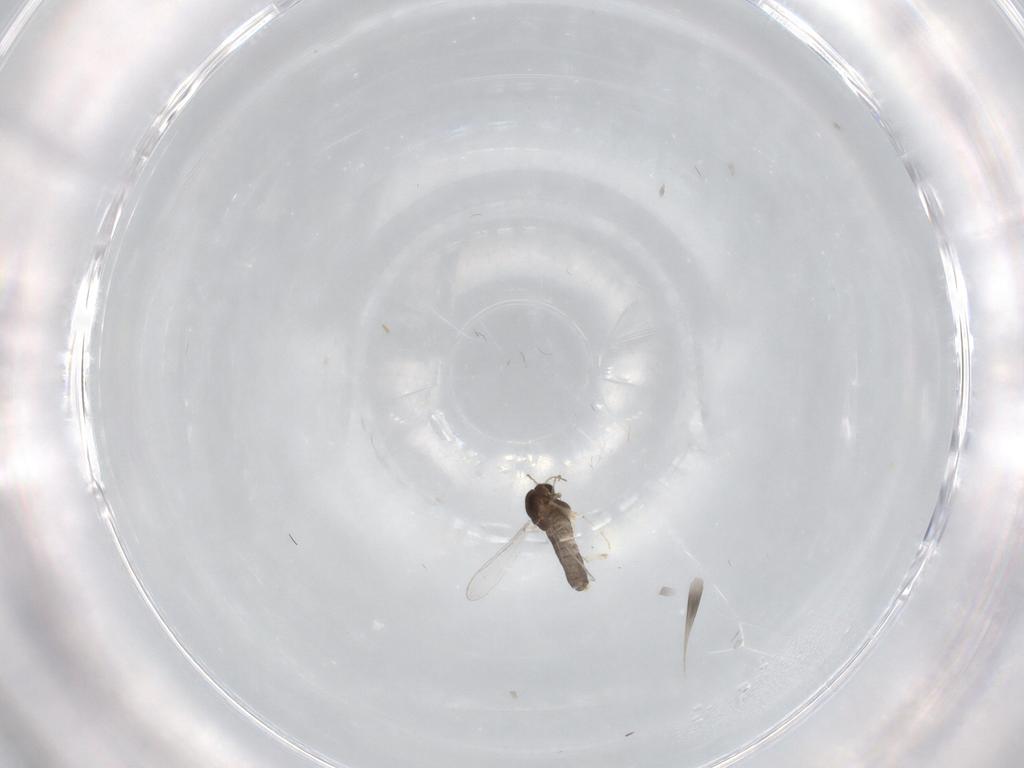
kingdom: Animalia
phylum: Arthropoda
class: Insecta
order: Diptera
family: Chironomidae
